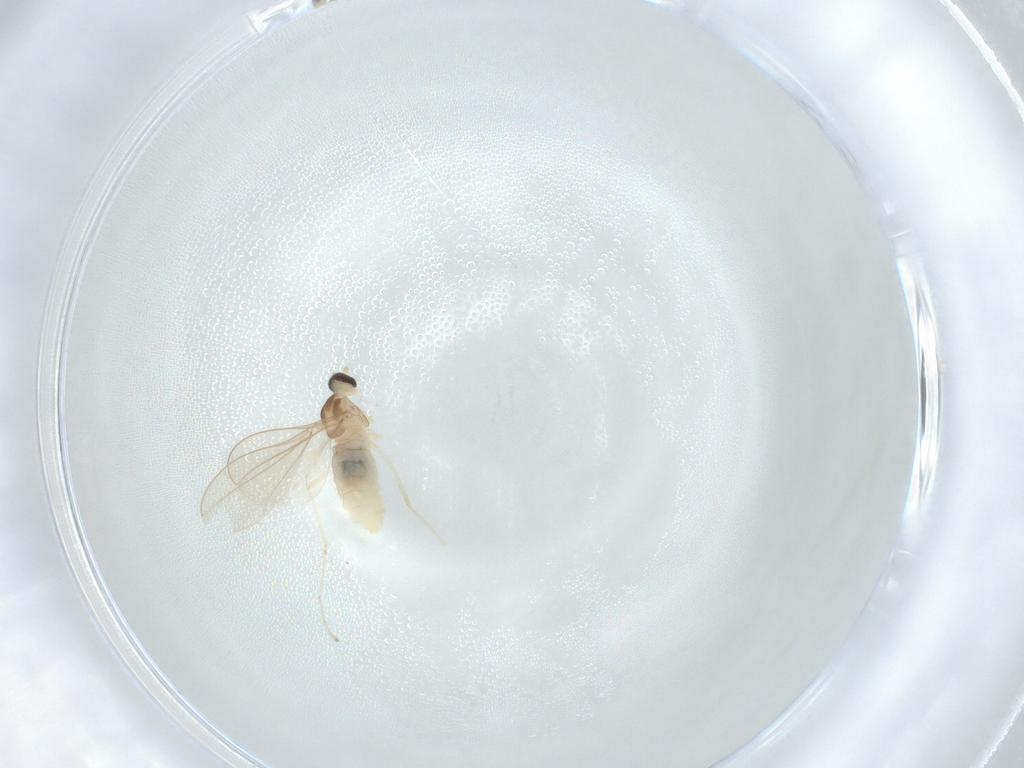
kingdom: Animalia
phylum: Arthropoda
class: Insecta
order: Diptera
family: Cecidomyiidae
